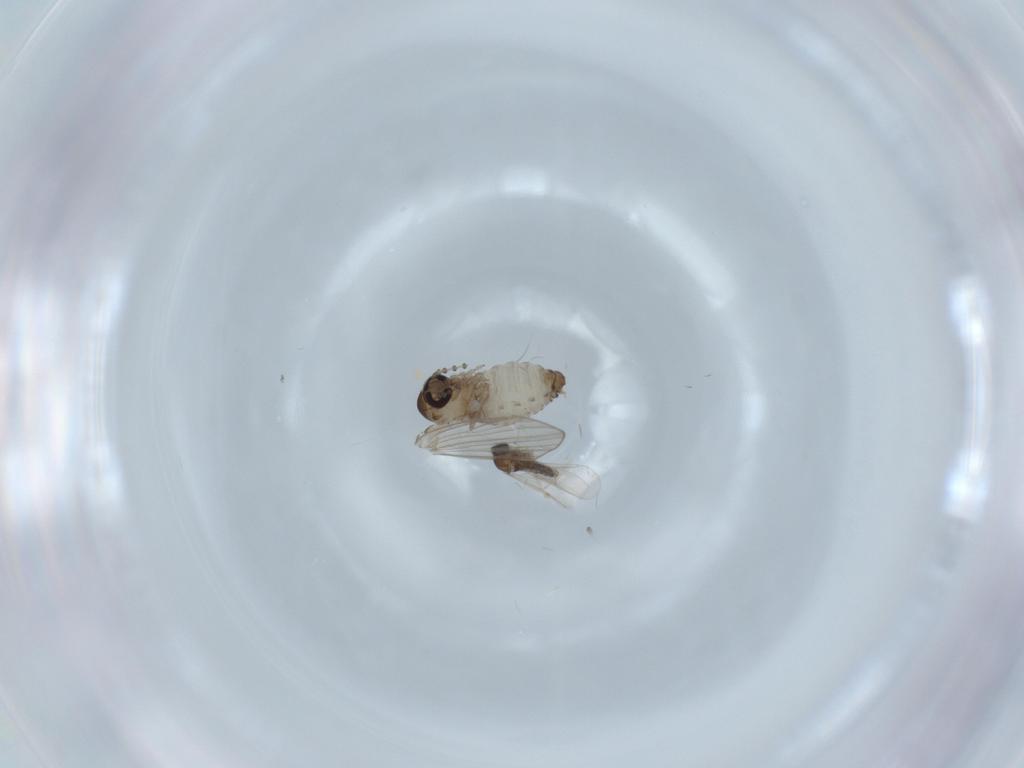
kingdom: Animalia
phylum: Arthropoda
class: Insecta
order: Diptera
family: Psychodidae
